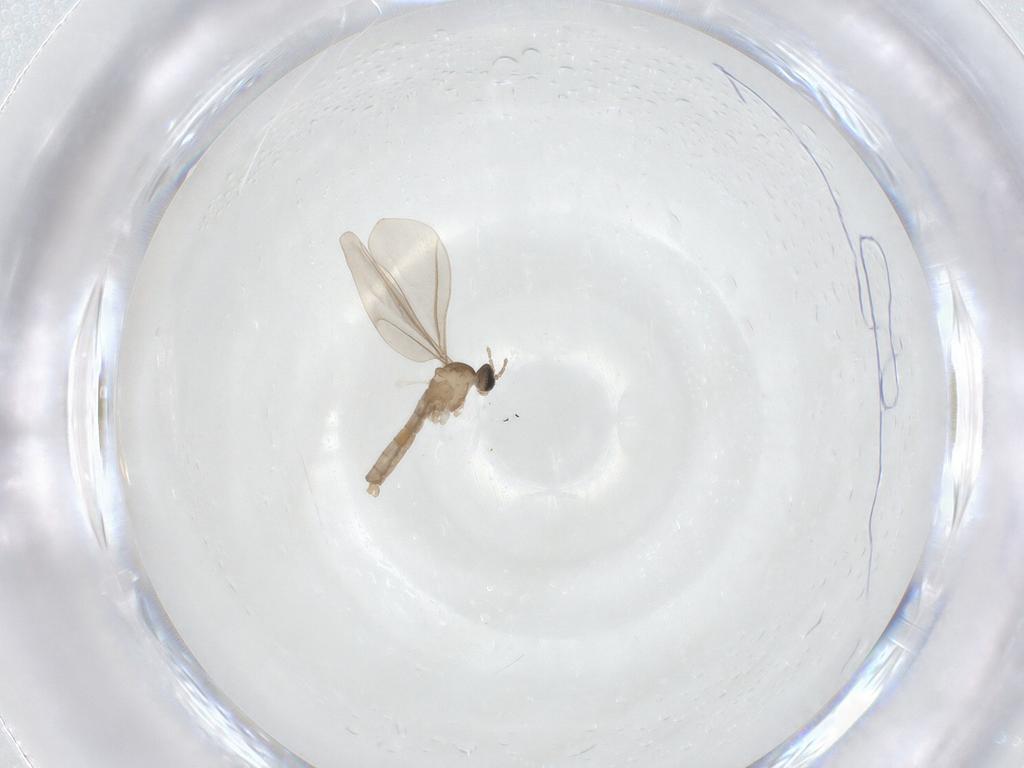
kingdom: Animalia
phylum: Arthropoda
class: Insecta
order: Diptera
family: Cecidomyiidae
